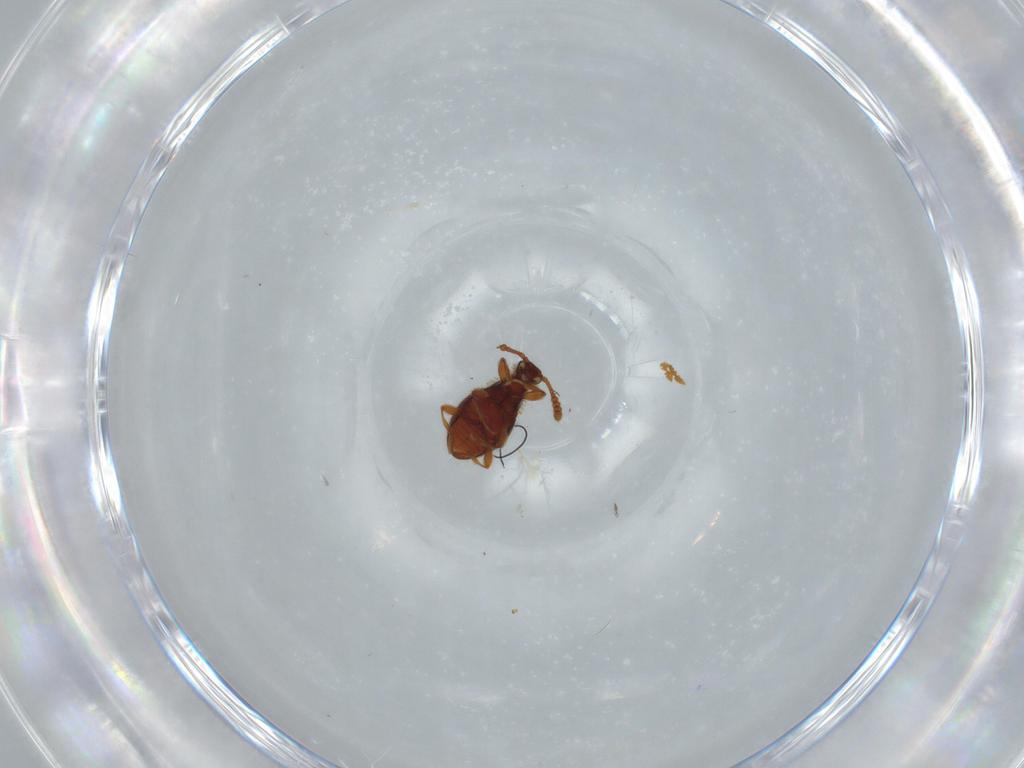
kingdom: Animalia
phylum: Arthropoda
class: Insecta
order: Coleoptera
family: Staphylinidae
